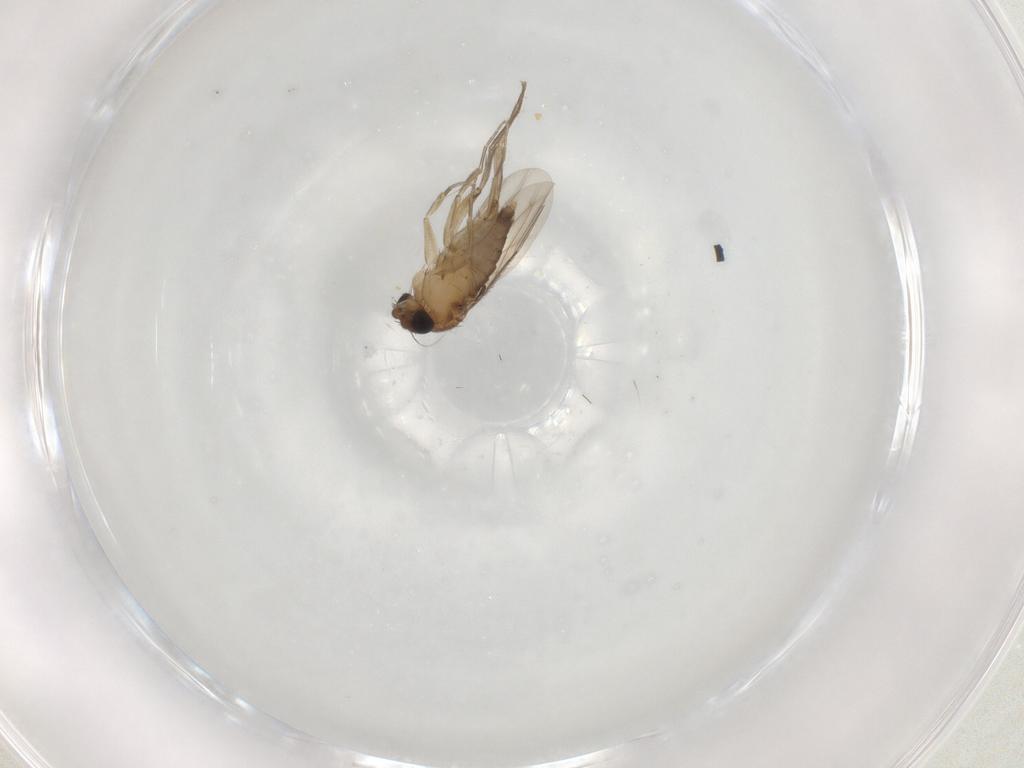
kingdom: Animalia
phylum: Arthropoda
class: Insecta
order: Diptera
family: Phoridae
